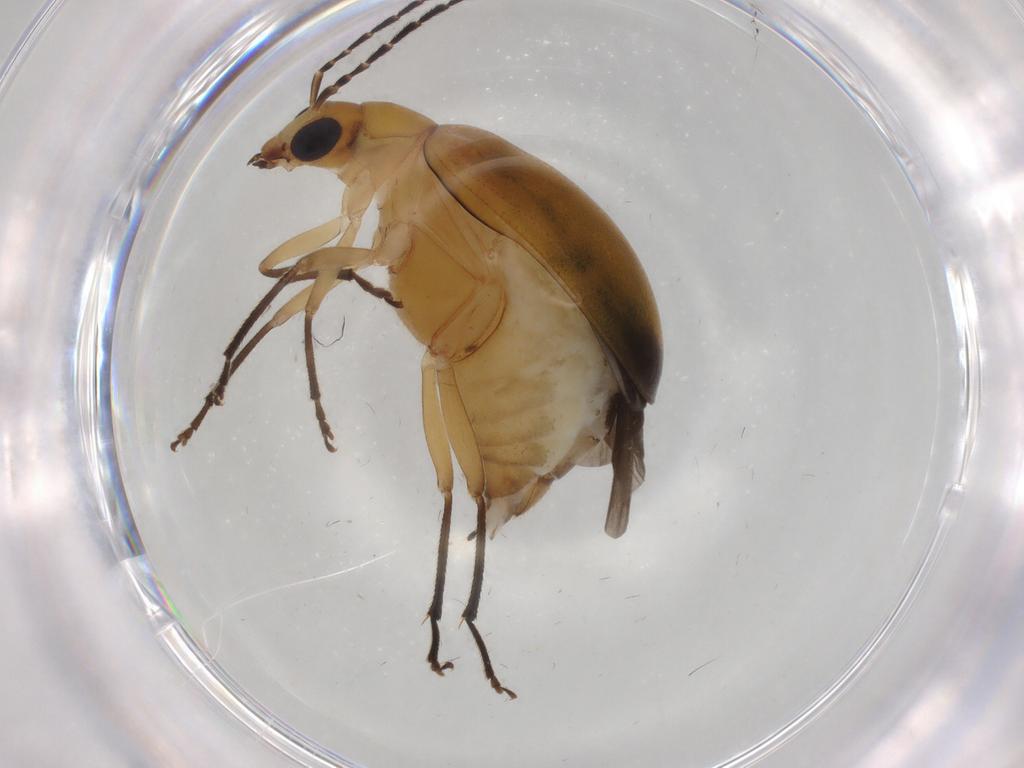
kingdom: Animalia
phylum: Arthropoda
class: Insecta
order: Coleoptera
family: Chrysomelidae
